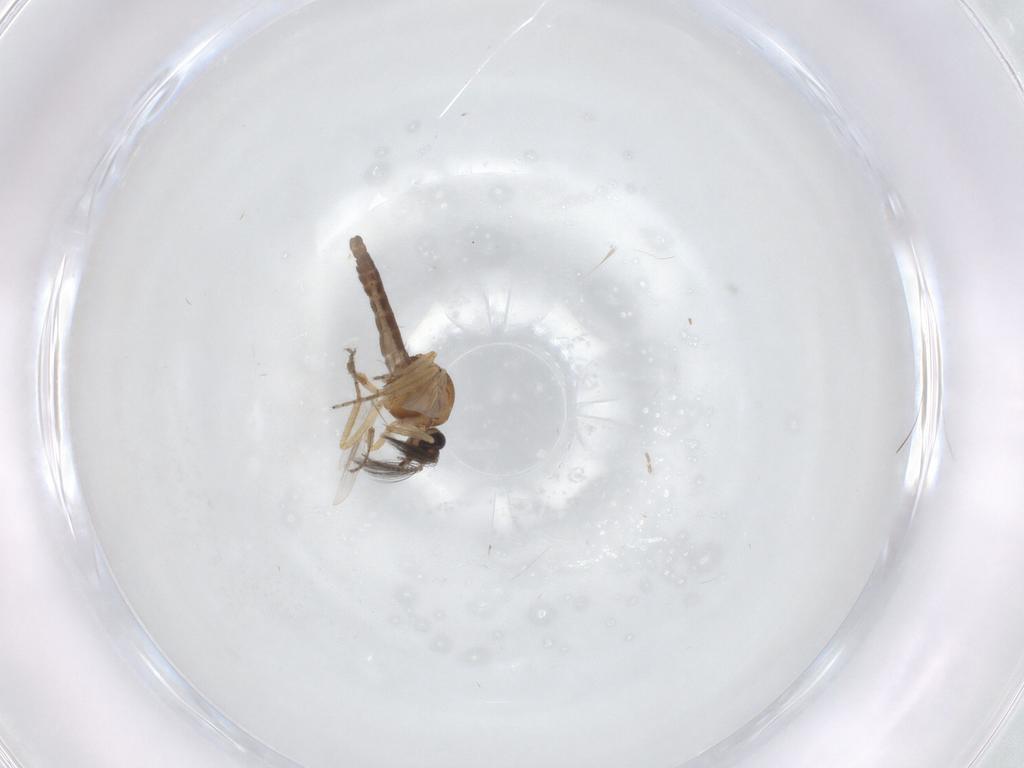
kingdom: Animalia
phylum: Arthropoda
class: Insecta
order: Diptera
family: Ceratopogonidae
